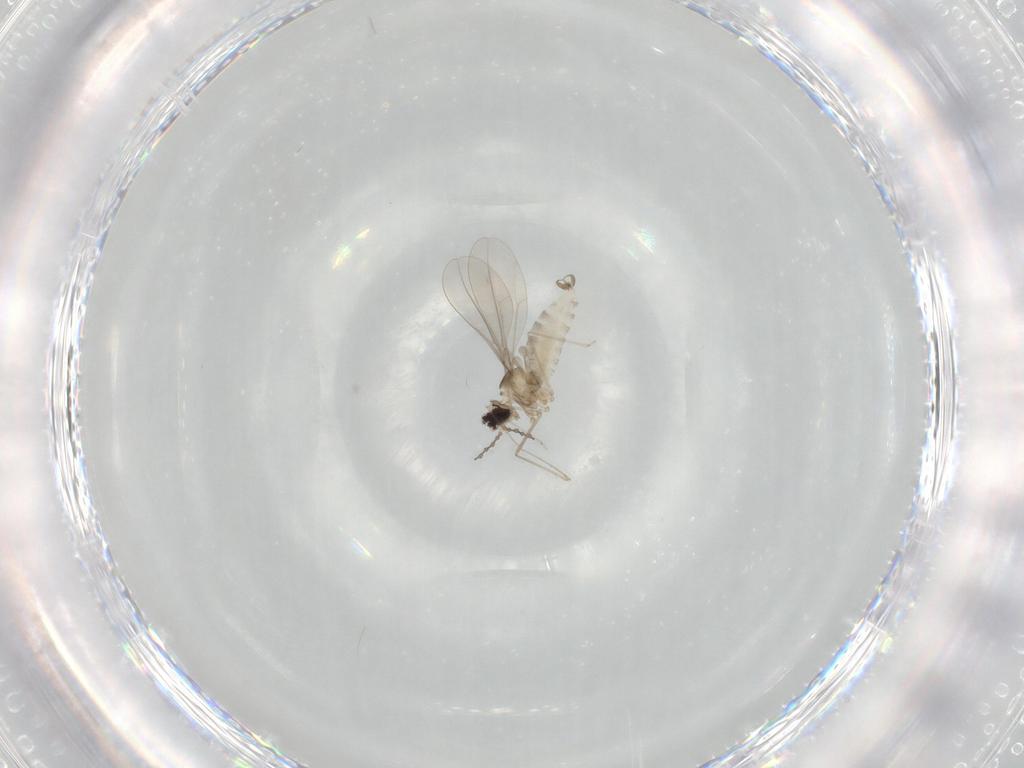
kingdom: Animalia
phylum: Arthropoda
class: Insecta
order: Diptera
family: Cecidomyiidae
